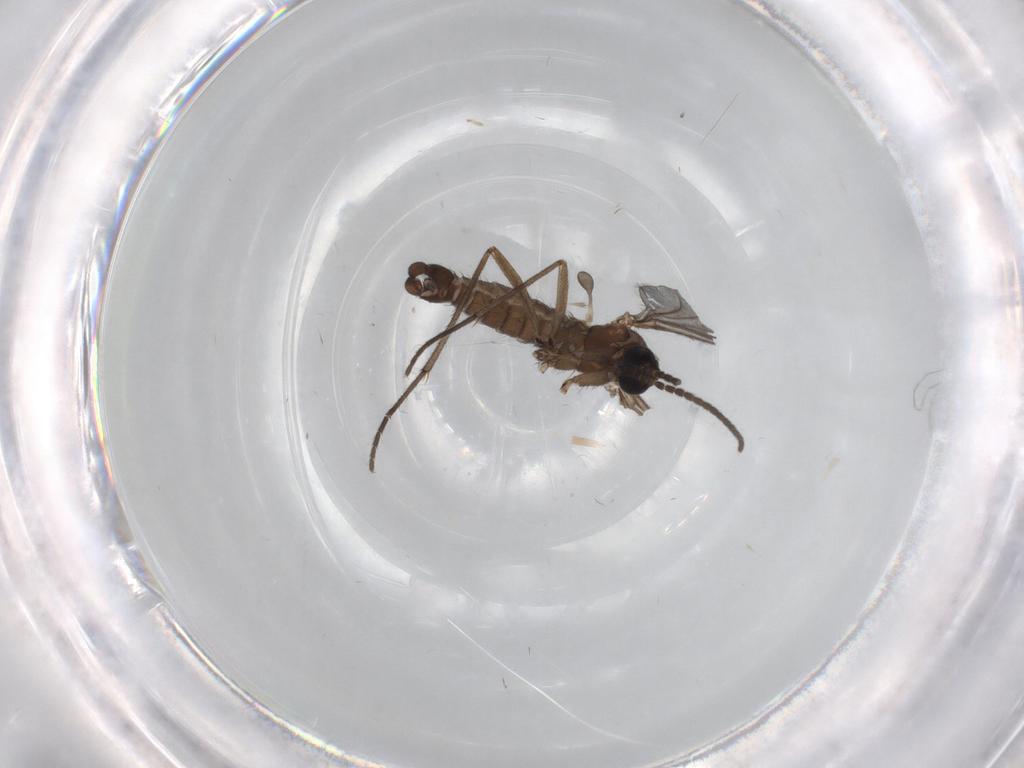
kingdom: Animalia
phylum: Arthropoda
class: Insecta
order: Diptera
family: Sciaridae
